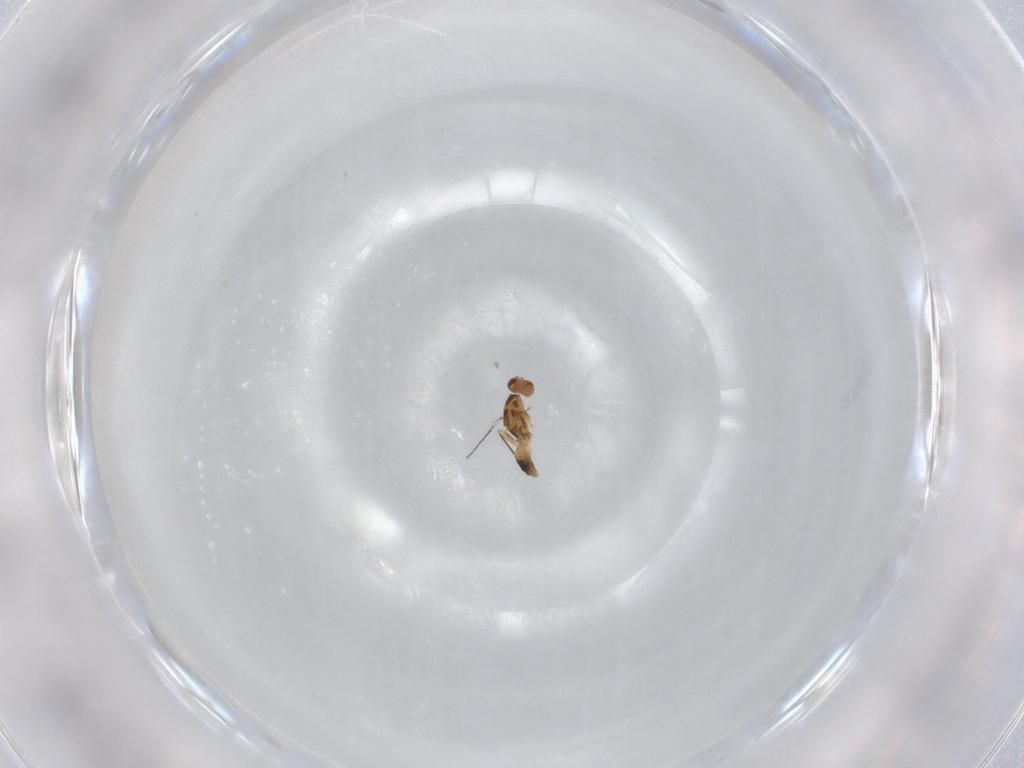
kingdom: Animalia
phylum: Arthropoda
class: Insecta
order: Hymenoptera
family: Mymaridae
